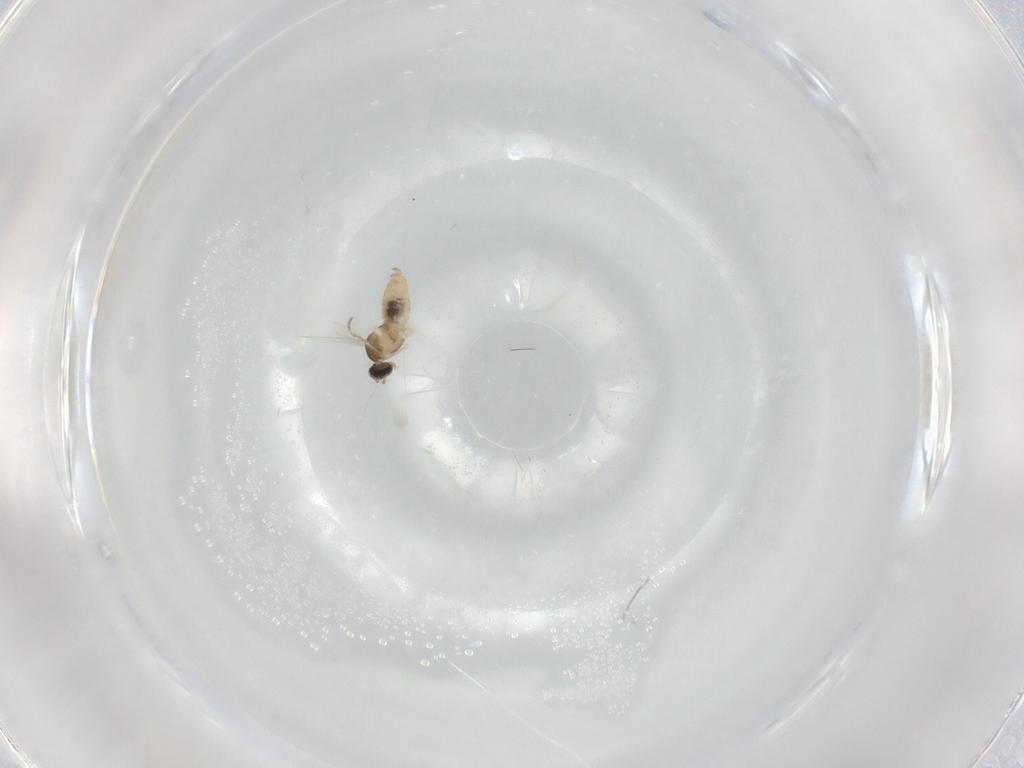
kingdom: Animalia
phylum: Arthropoda
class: Insecta
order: Diptera
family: Cecidomyiidae
